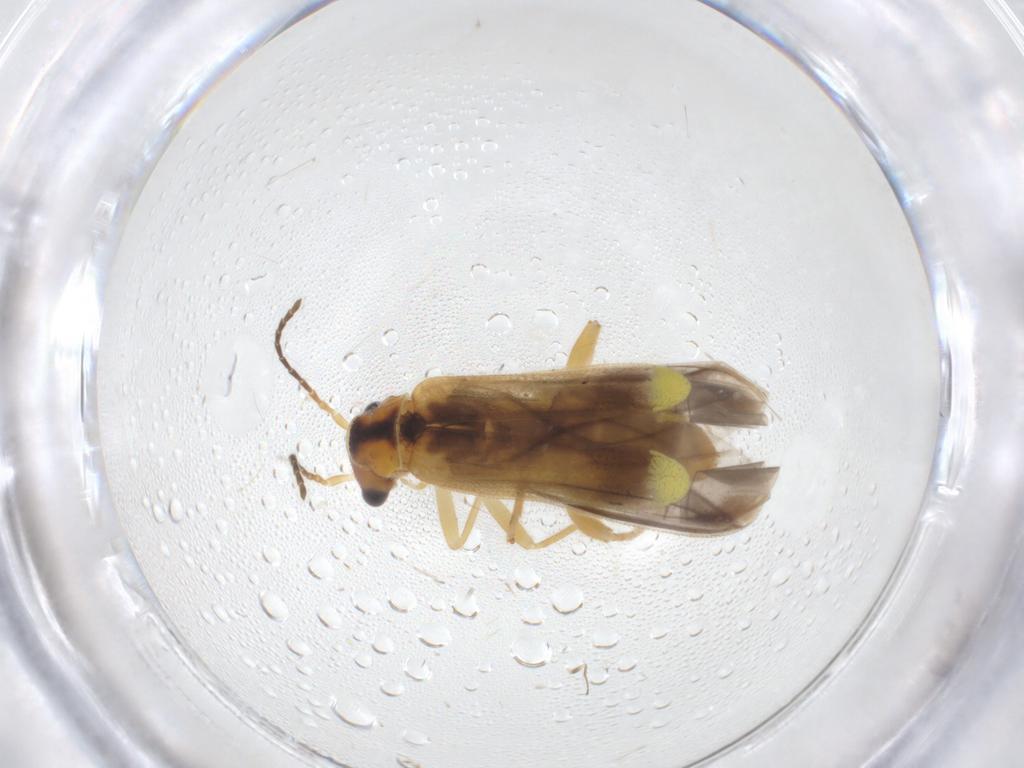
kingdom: Animalia
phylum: Arthropoda
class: Insecta
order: Coleoptera
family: Cantharidae
